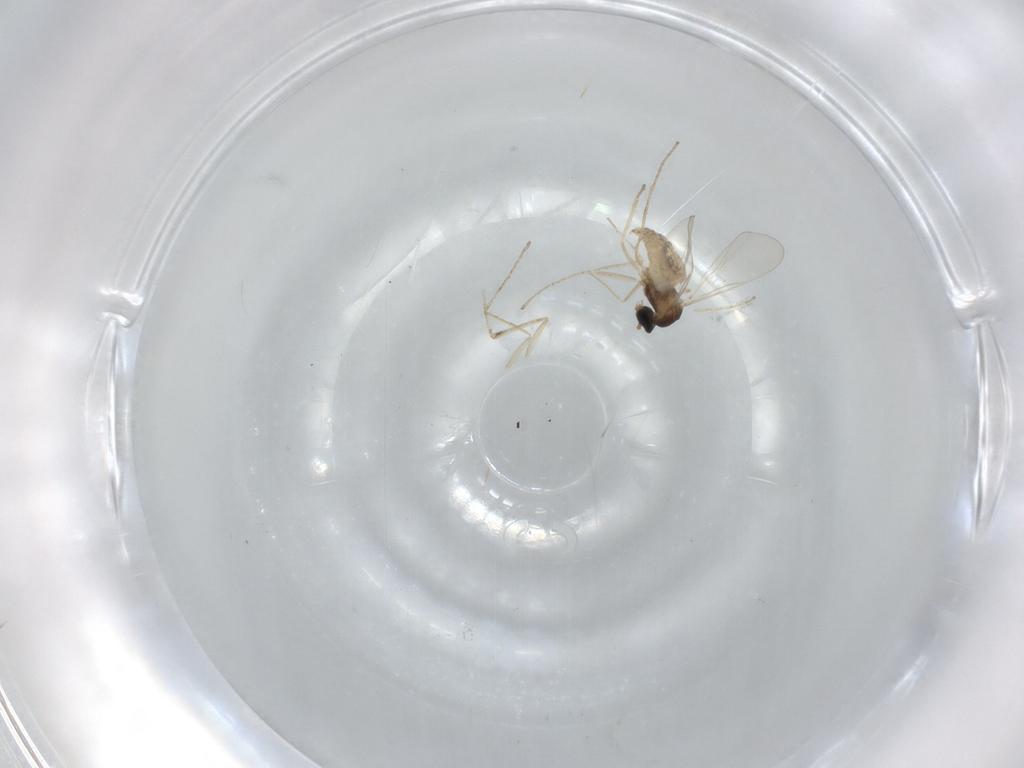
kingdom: Animalia
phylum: Arthropoda
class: Insecta
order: Diptera
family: Cecidomyiidae
